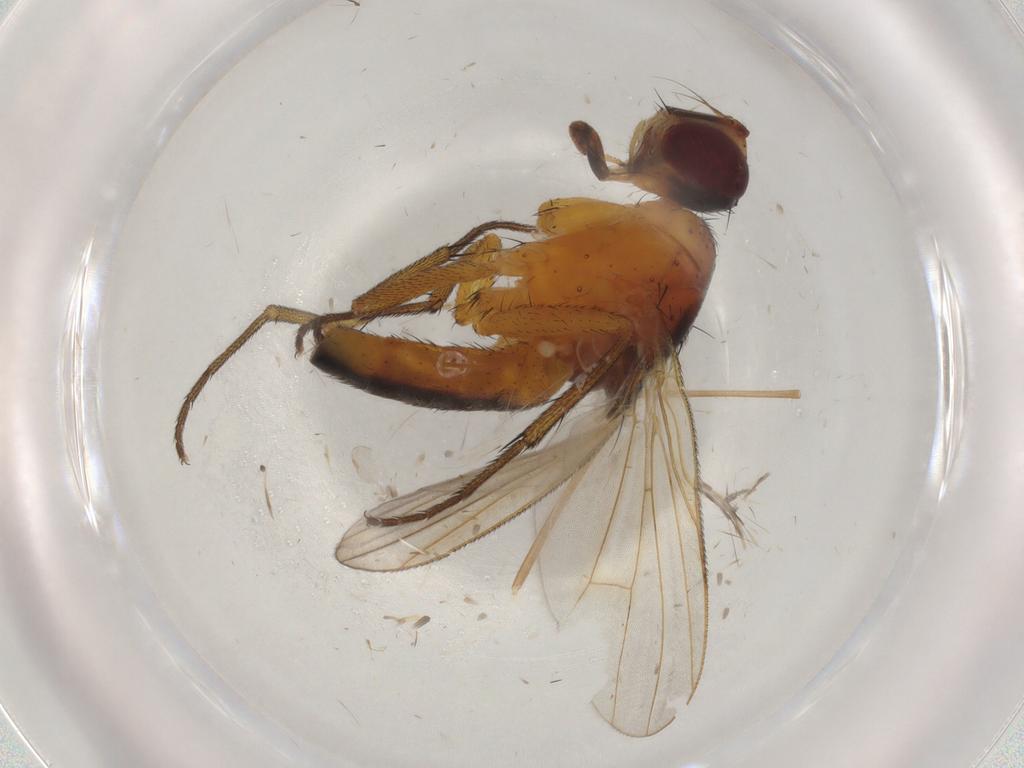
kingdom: Animalia
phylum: Arthropoda
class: Insecta
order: Diptera
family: Muscidae
